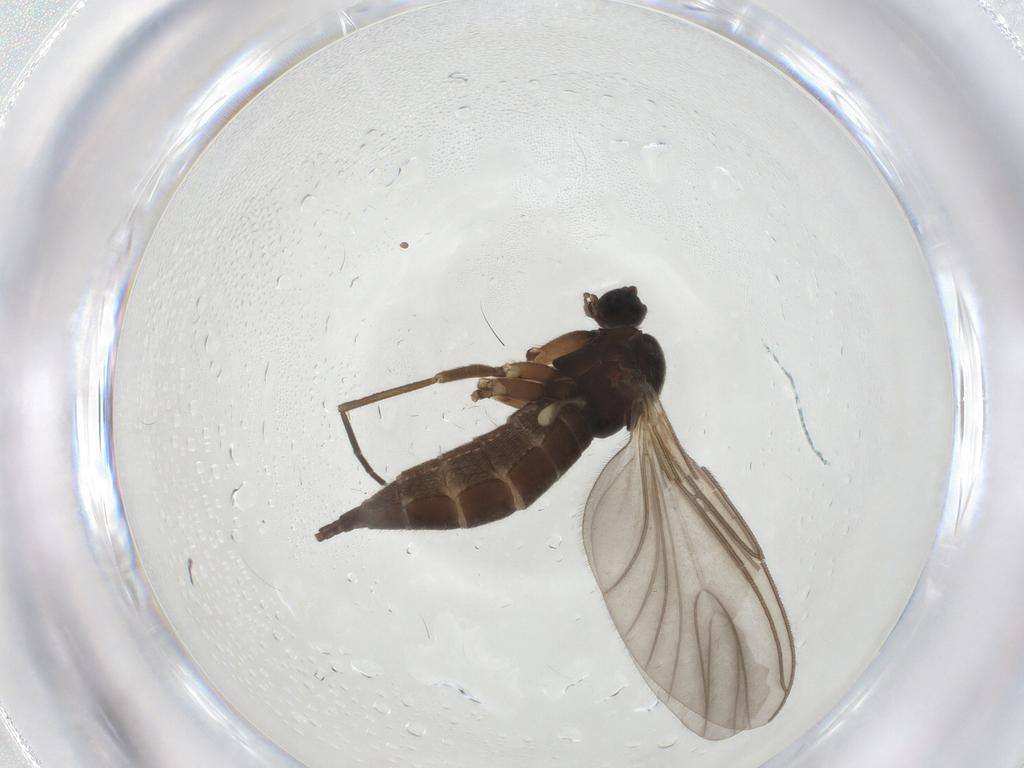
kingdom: Animalia
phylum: Arthropoda
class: Insecta
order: Diptera
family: Sciaridae
